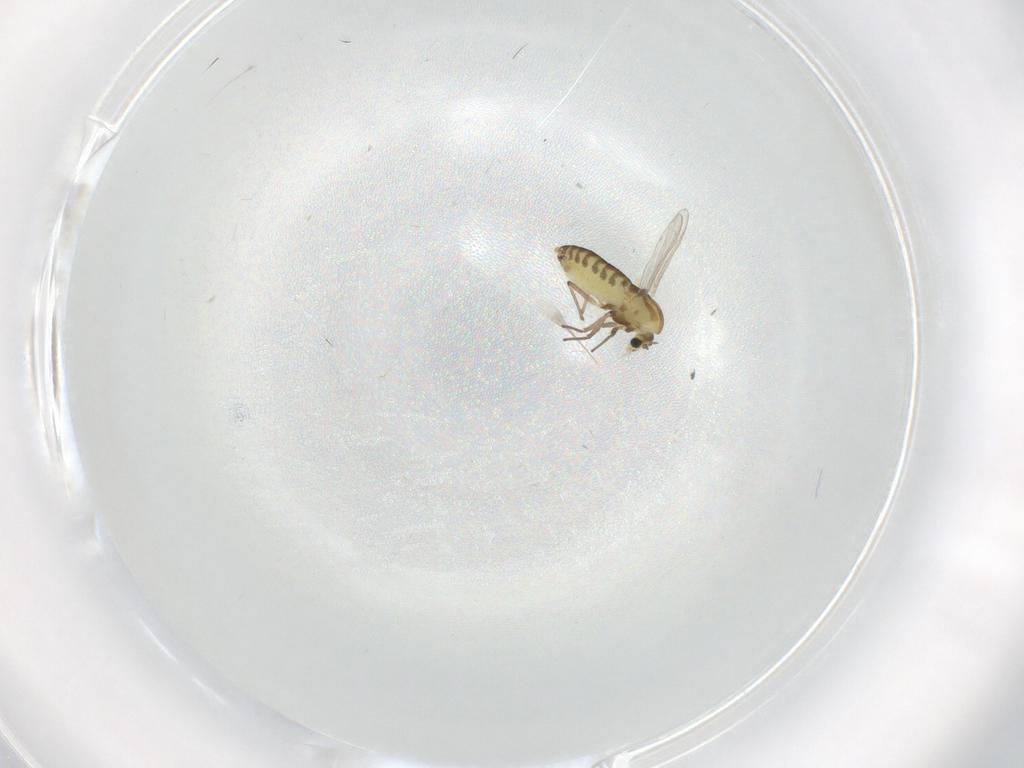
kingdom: Animalia
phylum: Arthropoda
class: Insecta
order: Diptera
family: Chironomidae
